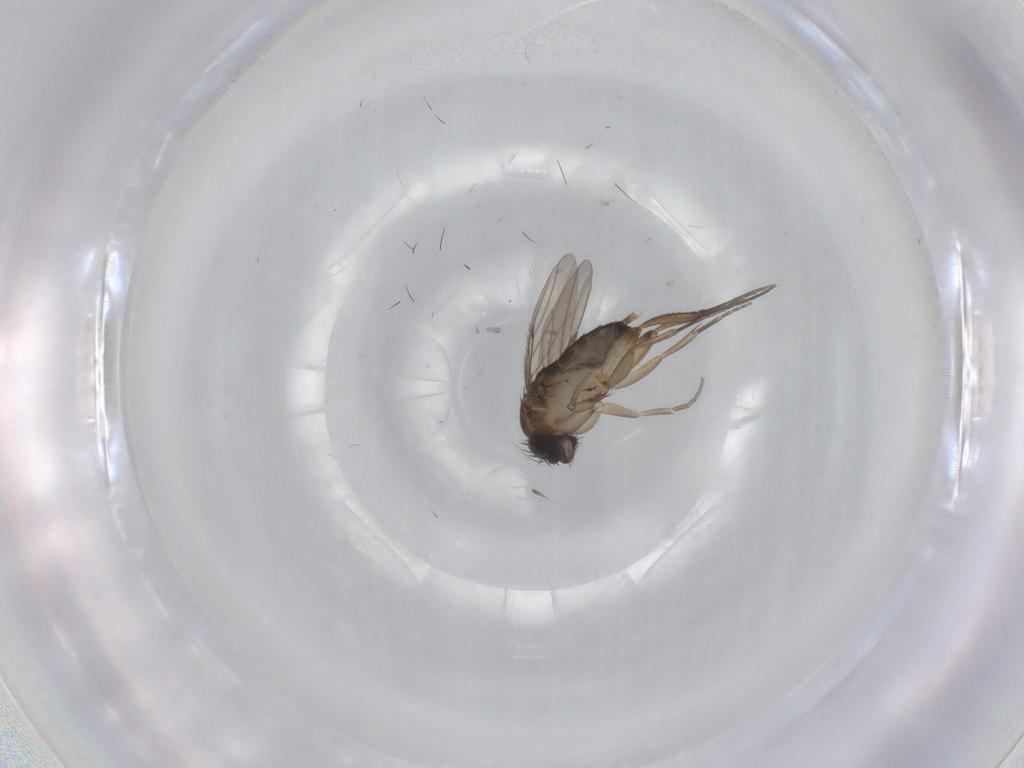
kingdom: Animalia
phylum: Arthropoda
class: Insecta
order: Diptera
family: Phoridae
